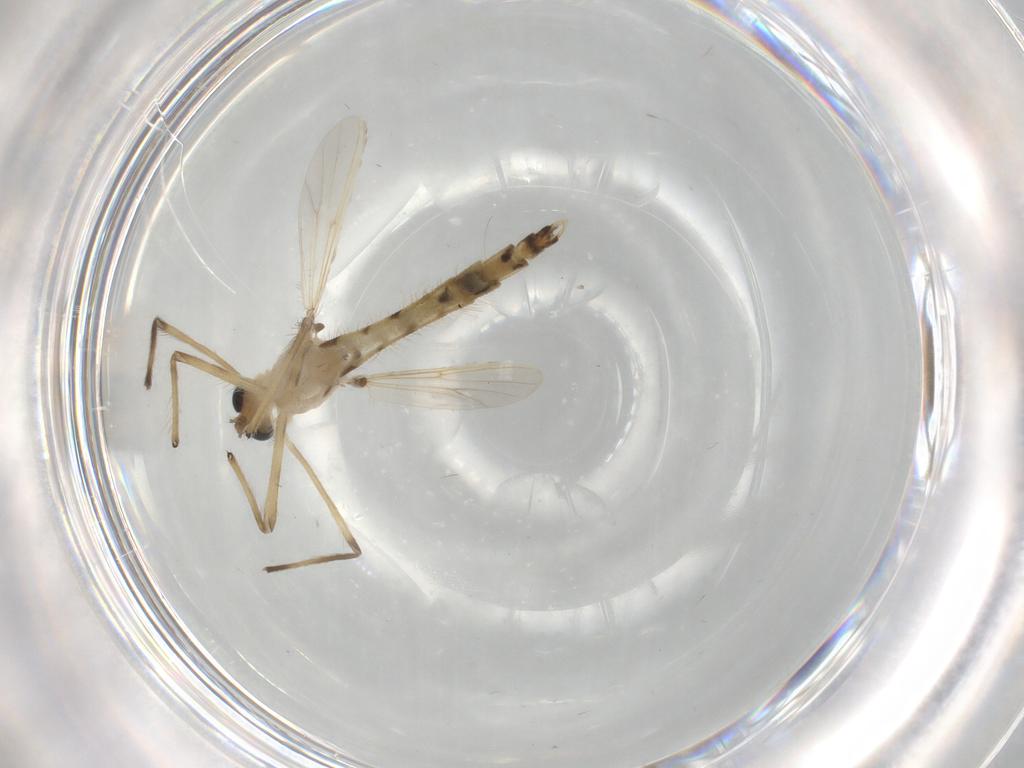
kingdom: Animalia
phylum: Arthropoda
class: Insecta
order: Diptera
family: Chironomidae
